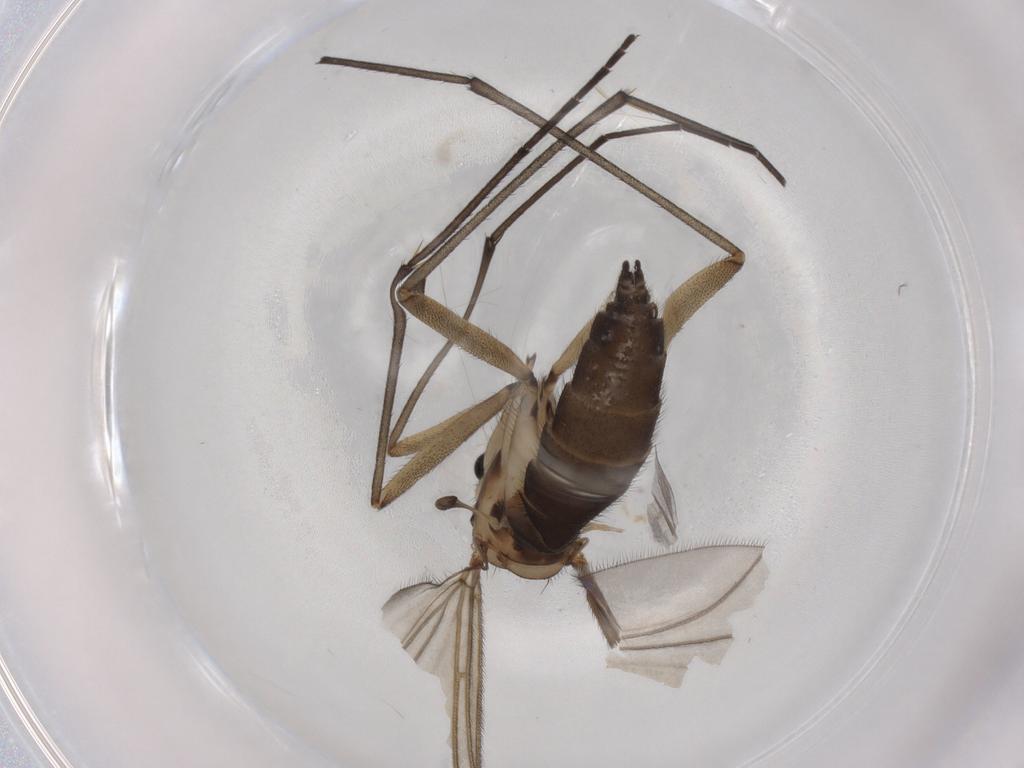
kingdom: Animalia
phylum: Arthropoda
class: Insecta
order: Diptera
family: Sciaridae
